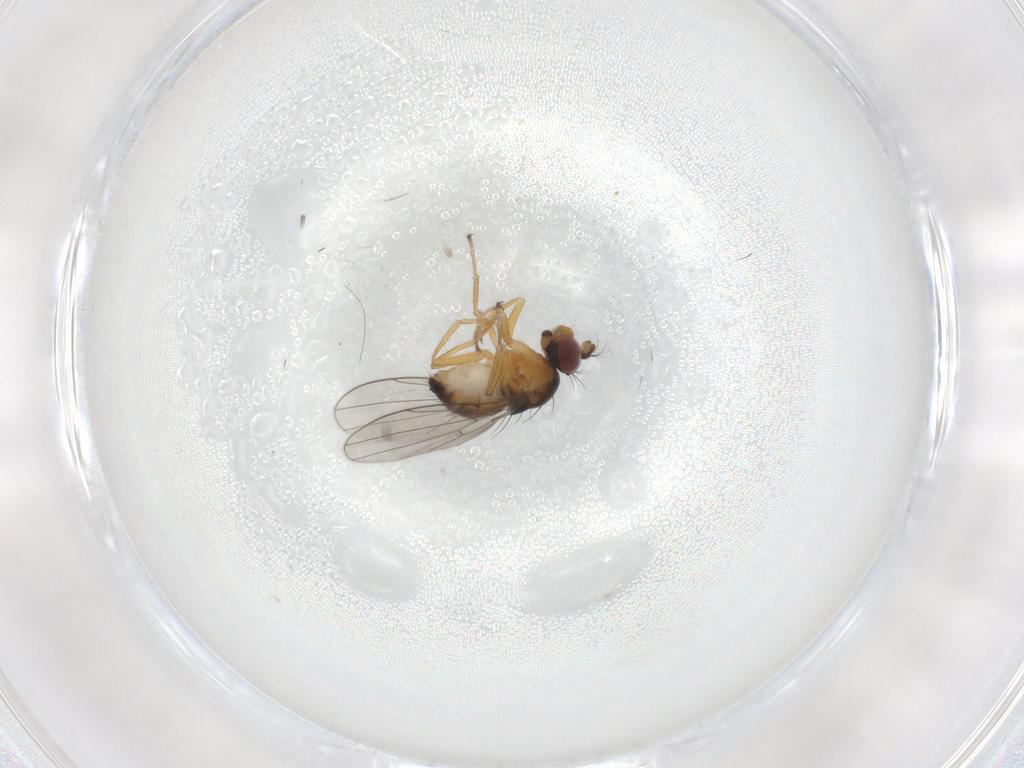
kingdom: Animalia
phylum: Arthropoda
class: Insecta
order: Diptera
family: Ephydridae
